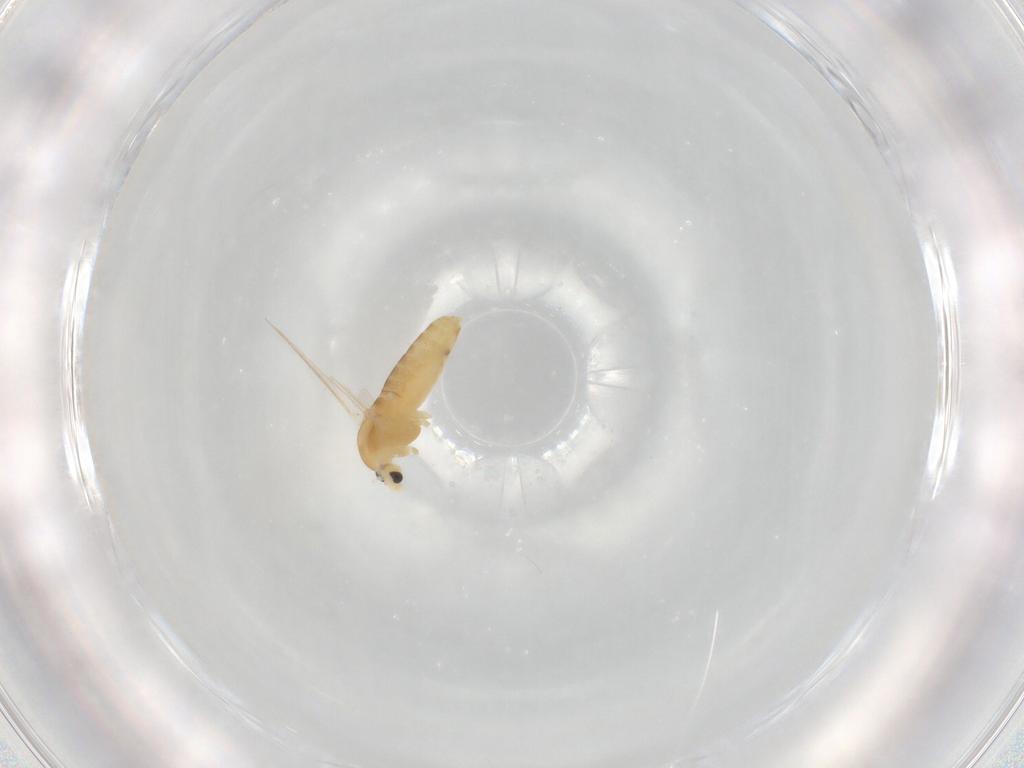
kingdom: Animalia
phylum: Arthropoda
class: Insecta
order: Diptera
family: Chironomidae
